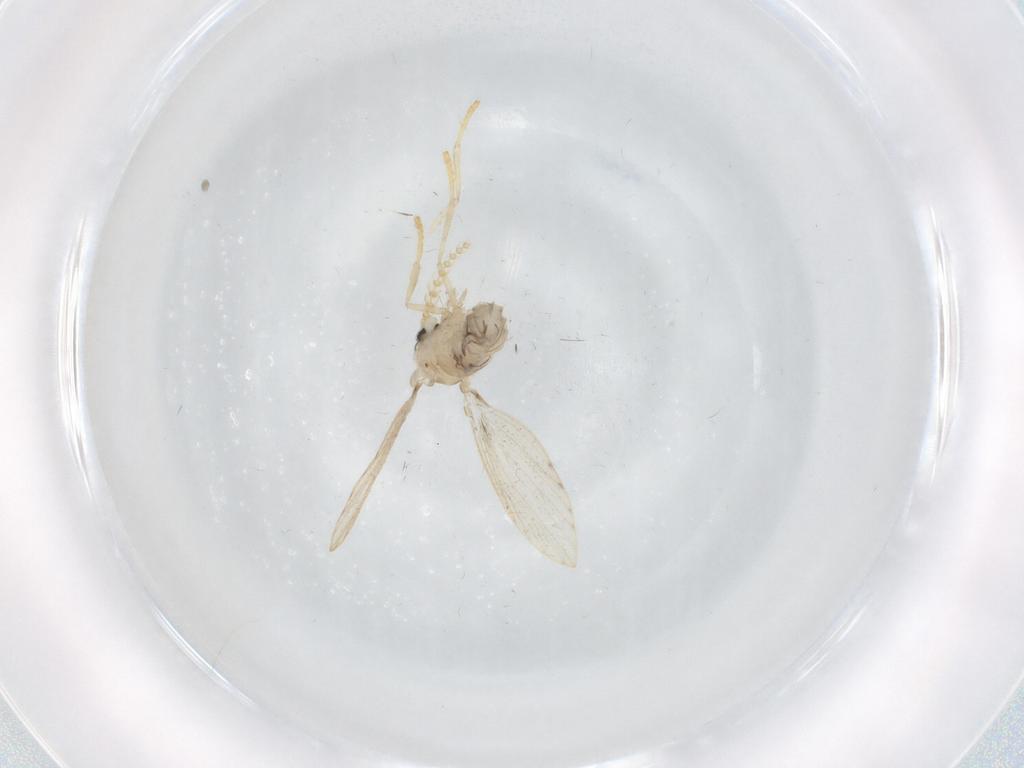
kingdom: Animalia
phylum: Arthropoda
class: Insecta
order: Diptera
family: Psychodidae
